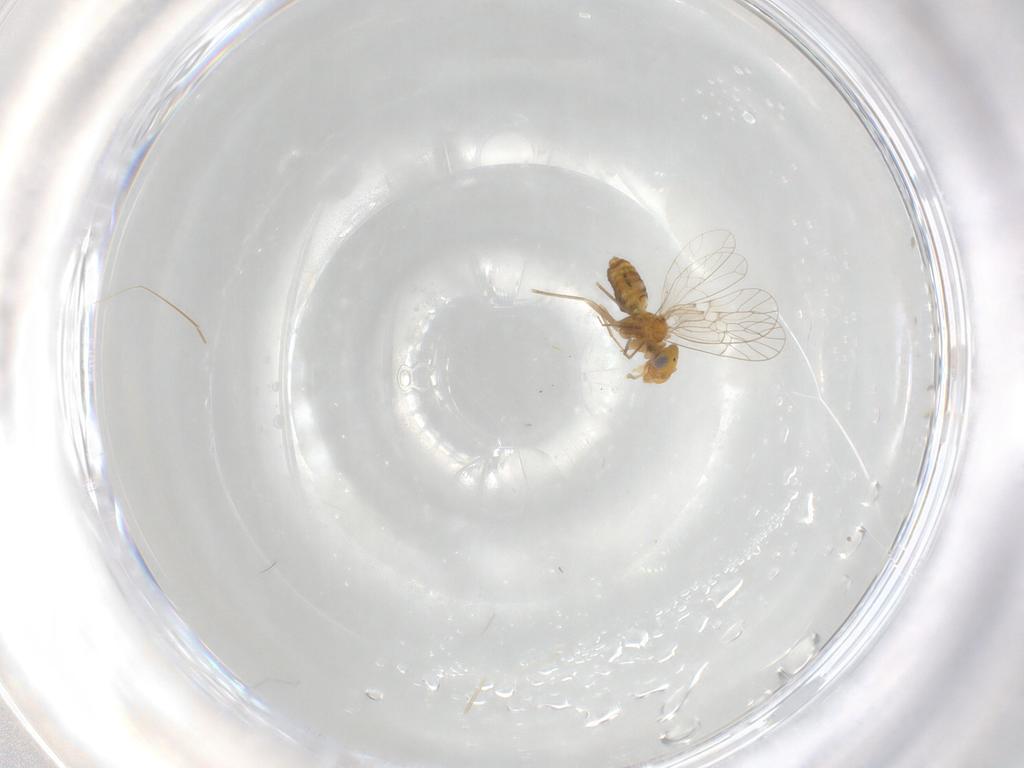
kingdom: Animalia
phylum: Arthropoda
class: Insecta
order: Psocodea
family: Prionoglarididae
